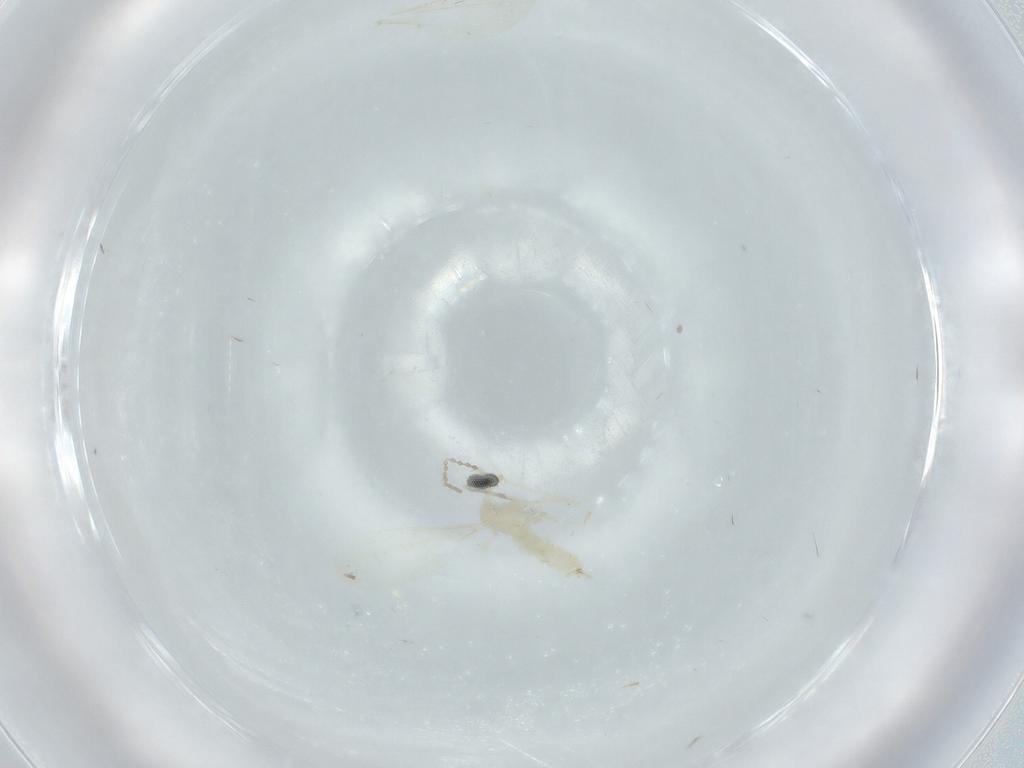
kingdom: Animalia
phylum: Arthropoda
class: Insecta
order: Diptera
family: Cecidomyiidae
